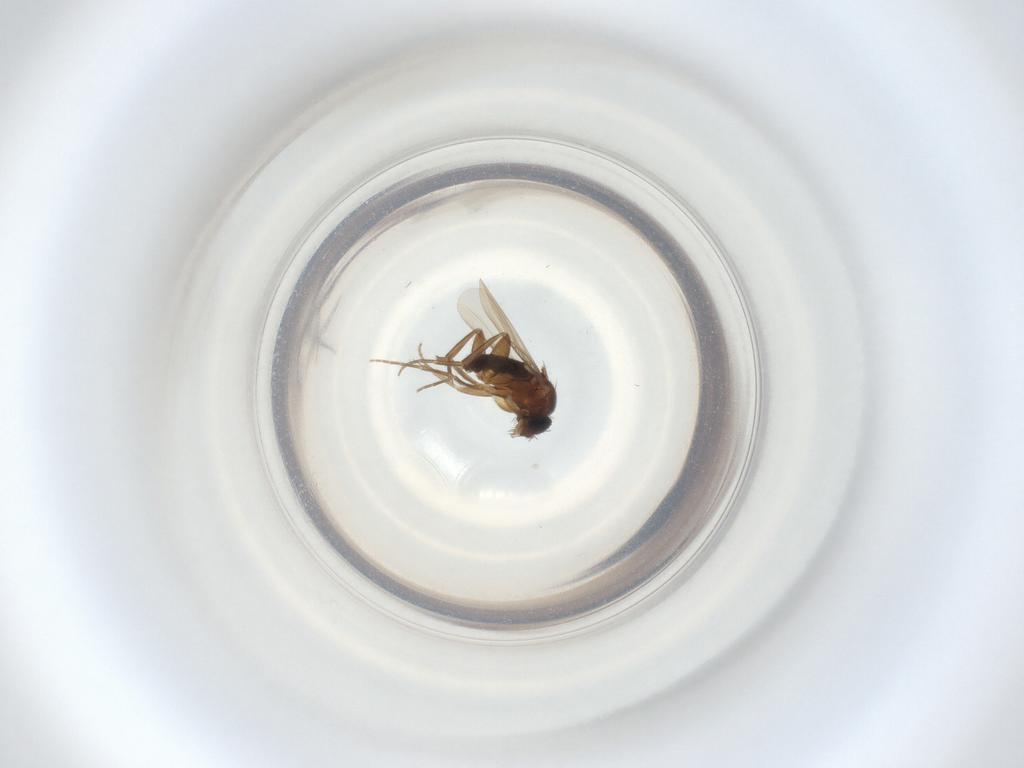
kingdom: Animalia
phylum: Arthropoda
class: Insecta
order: Diptera
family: Phoridae
